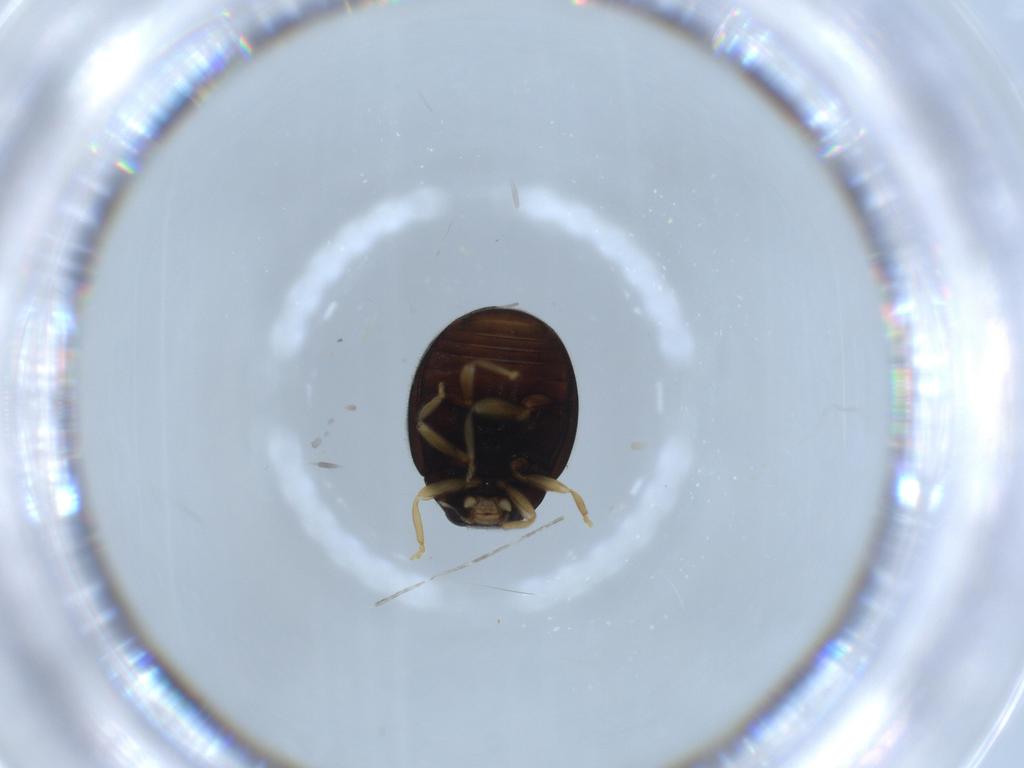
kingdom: Animalia
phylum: Arthropoda
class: Insecta
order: Coleoptera
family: Coccinellidae
